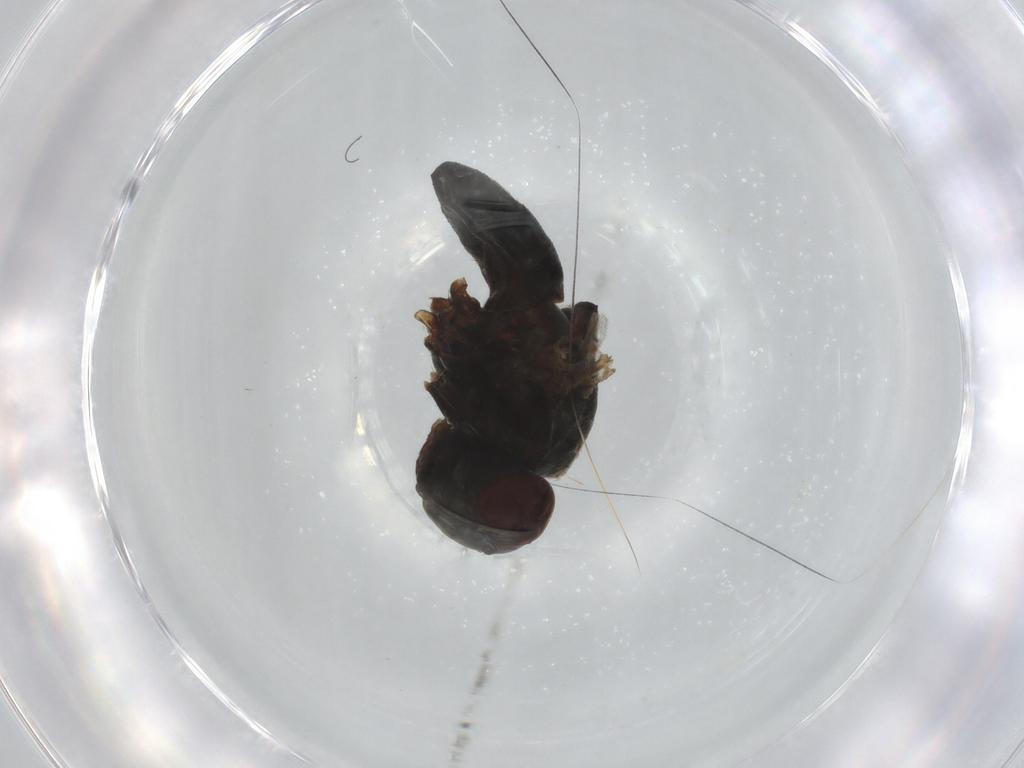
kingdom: Animalia
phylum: Arthropoda
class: Insecta
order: Diptera
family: Ephydridae
